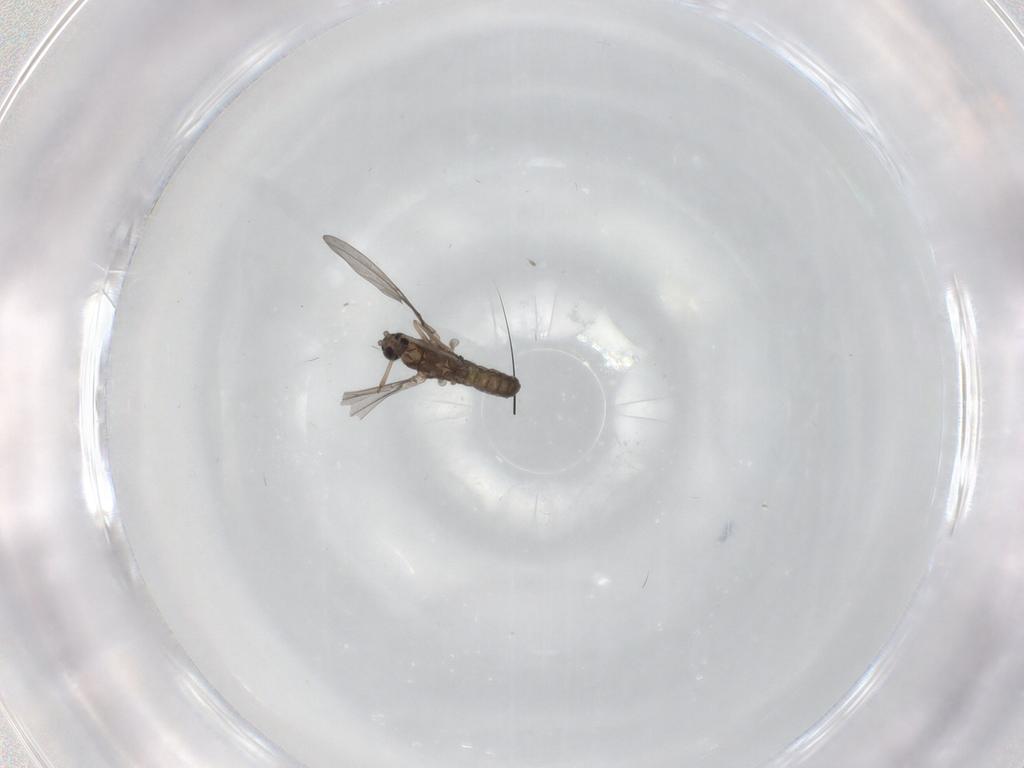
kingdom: Animalia
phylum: Arthropoda
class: Insecta
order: Diptera
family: Cecidomyiidae
